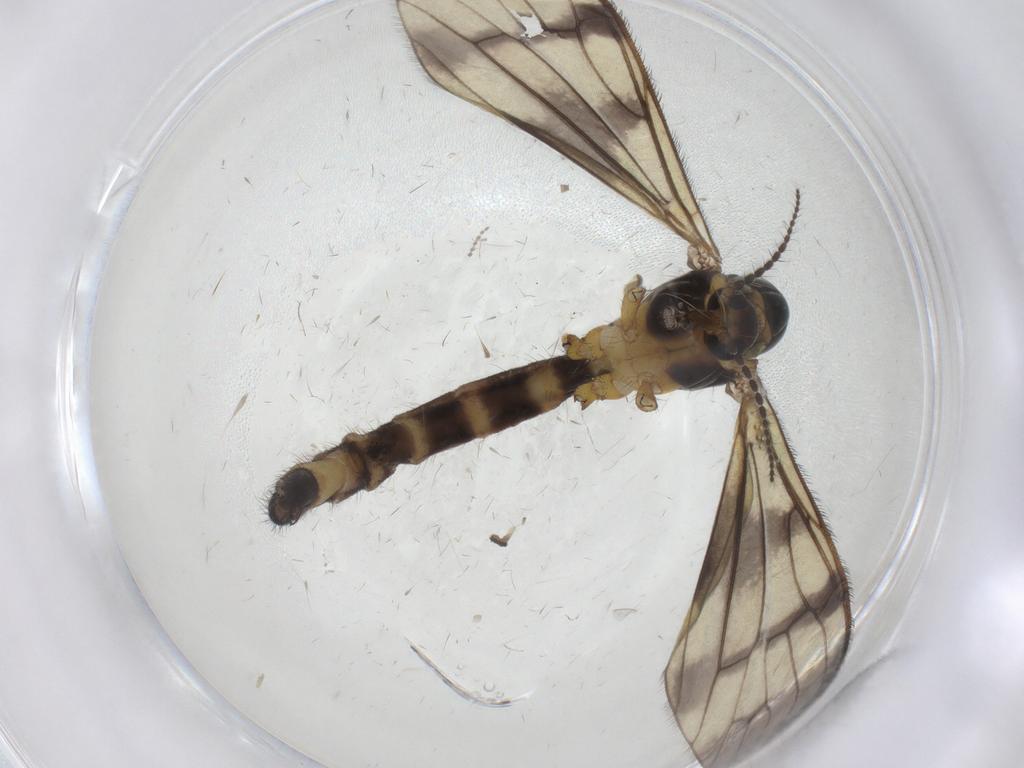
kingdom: Animalia
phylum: Arthropoda
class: Insecta
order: Diptera
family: Limoniidae
